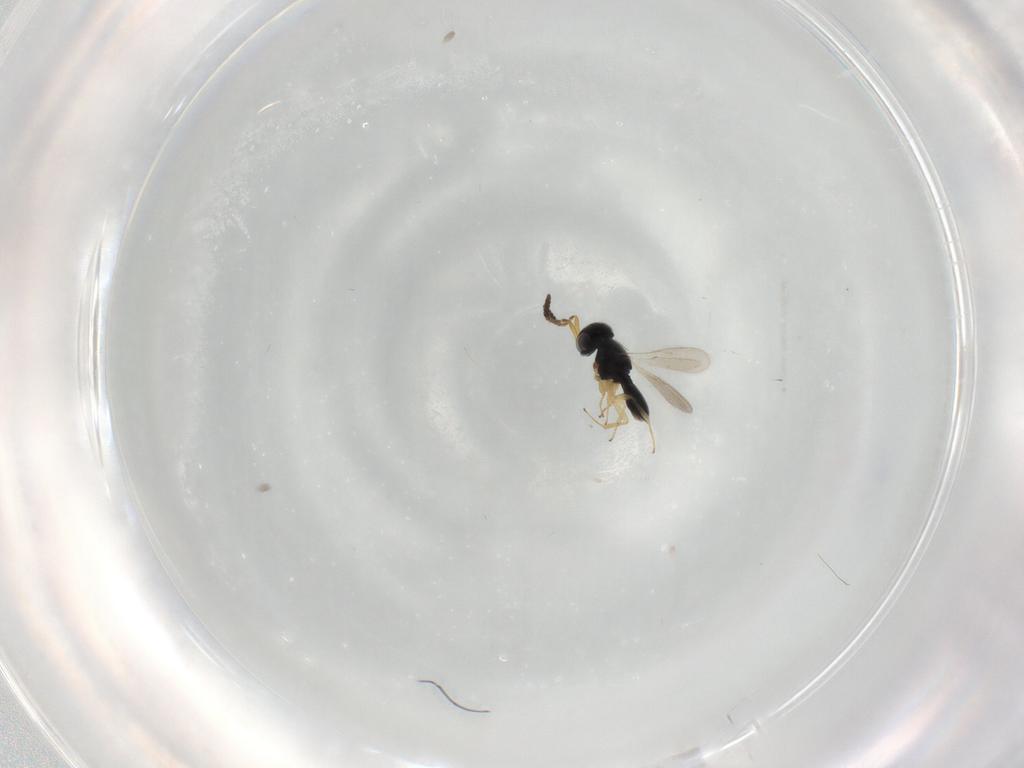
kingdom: Animalia
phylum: Arthropoda
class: Insecta
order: Hymenoptera
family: Scelionidae
